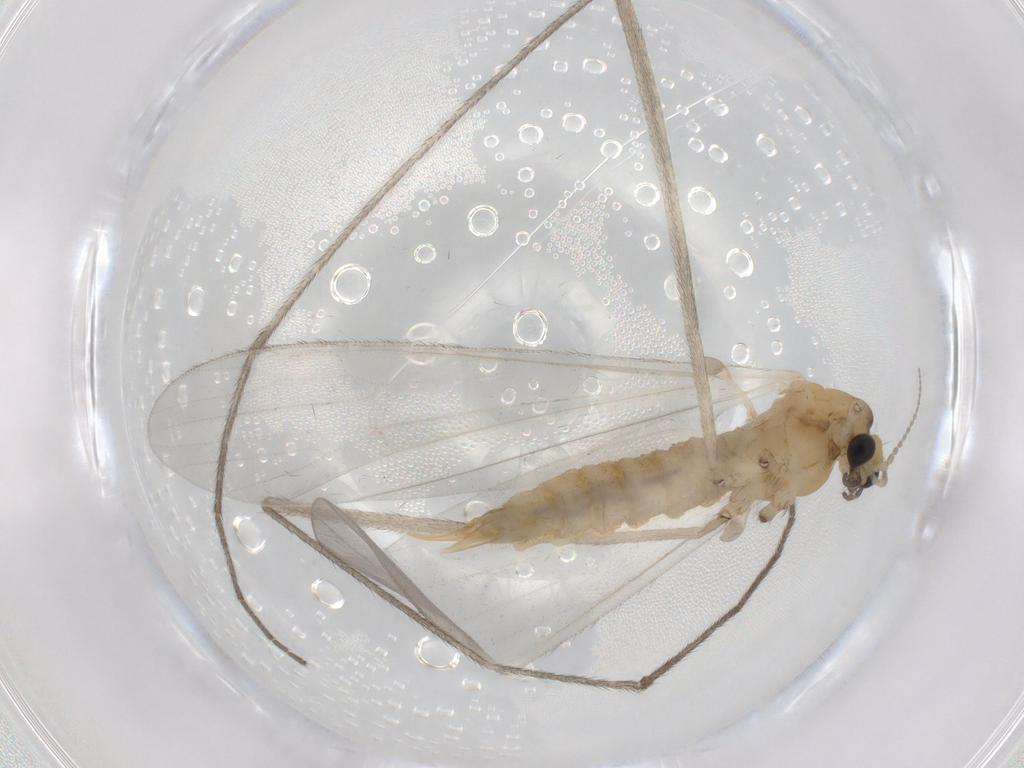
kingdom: Animalia
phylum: Arthropoda
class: Insecta
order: Diptera
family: Limoniidae
